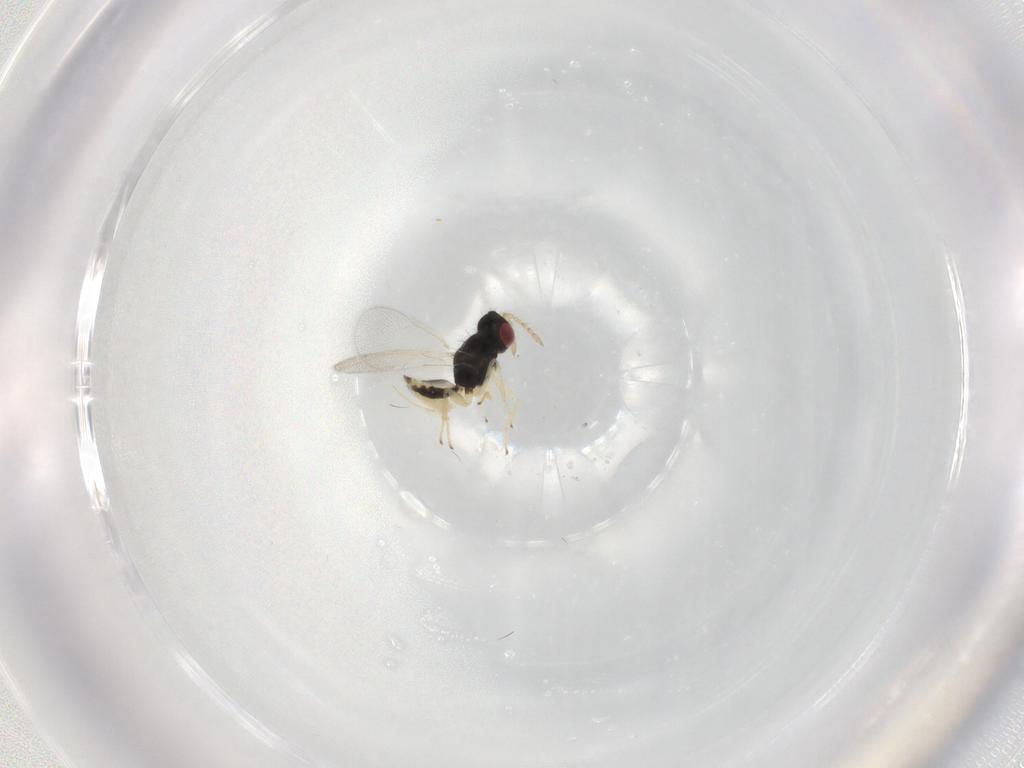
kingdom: Animalia
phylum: Arthropoda
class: Insecta
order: Hymenoptera
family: Eulophidae
